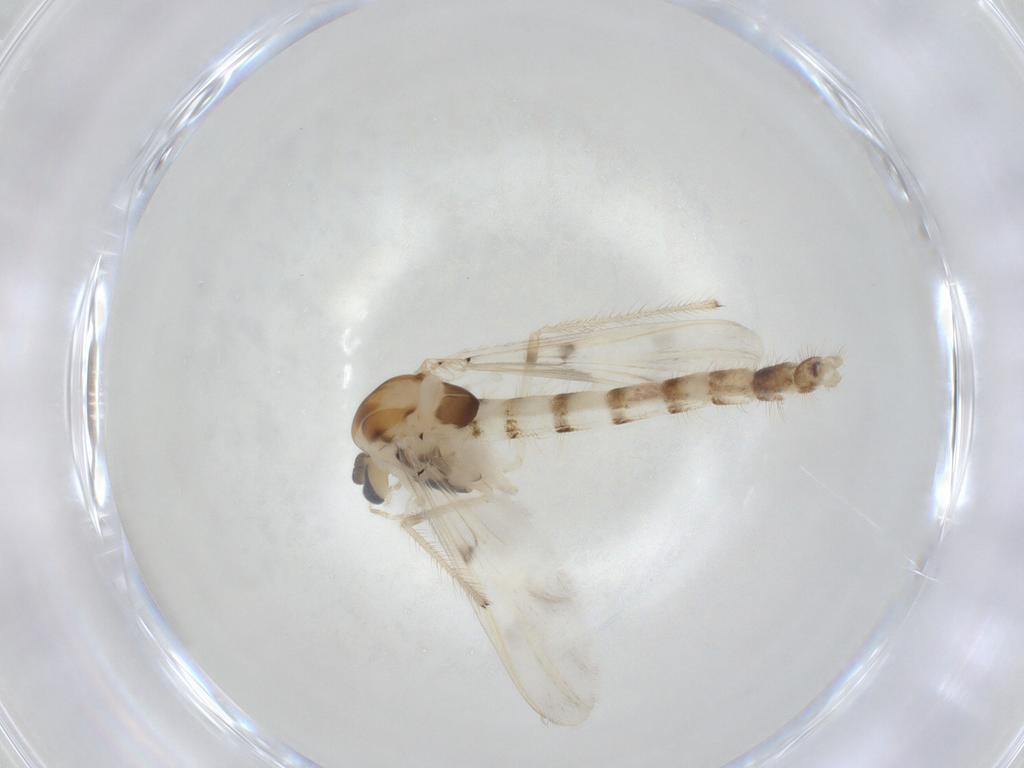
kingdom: Animalia
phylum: Arthropoda
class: Insecta
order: Diptera
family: Chironomidae
